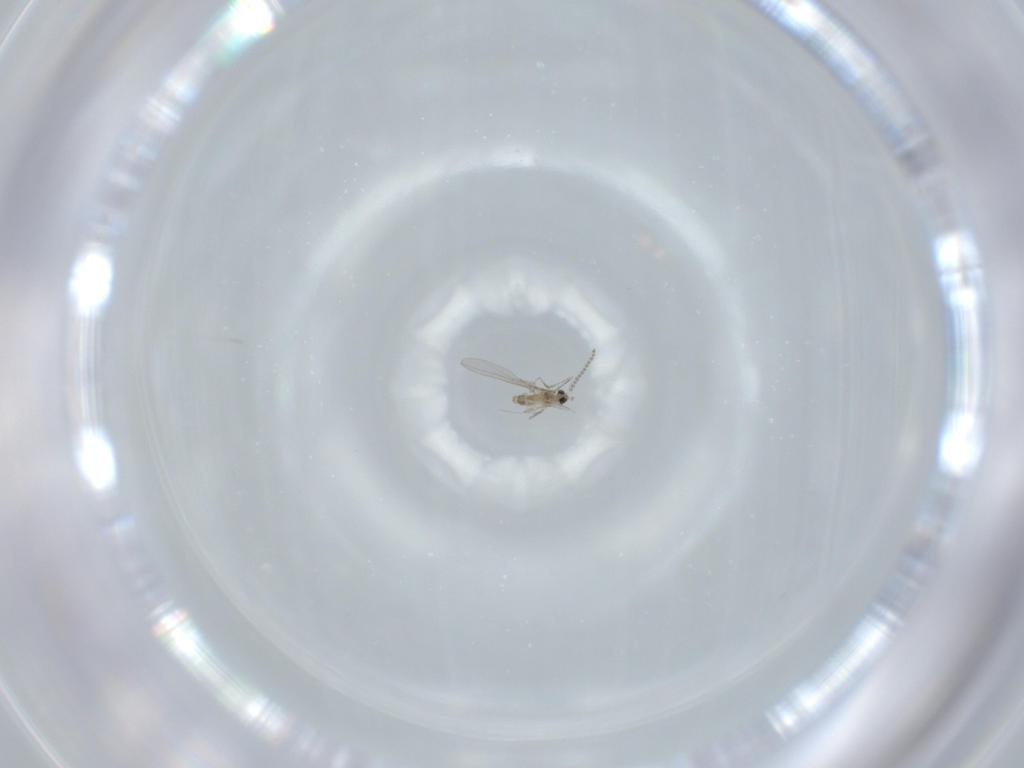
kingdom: Animalia
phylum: Arthropoda
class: Insecta
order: Diptera
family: Cecidomyiidae
